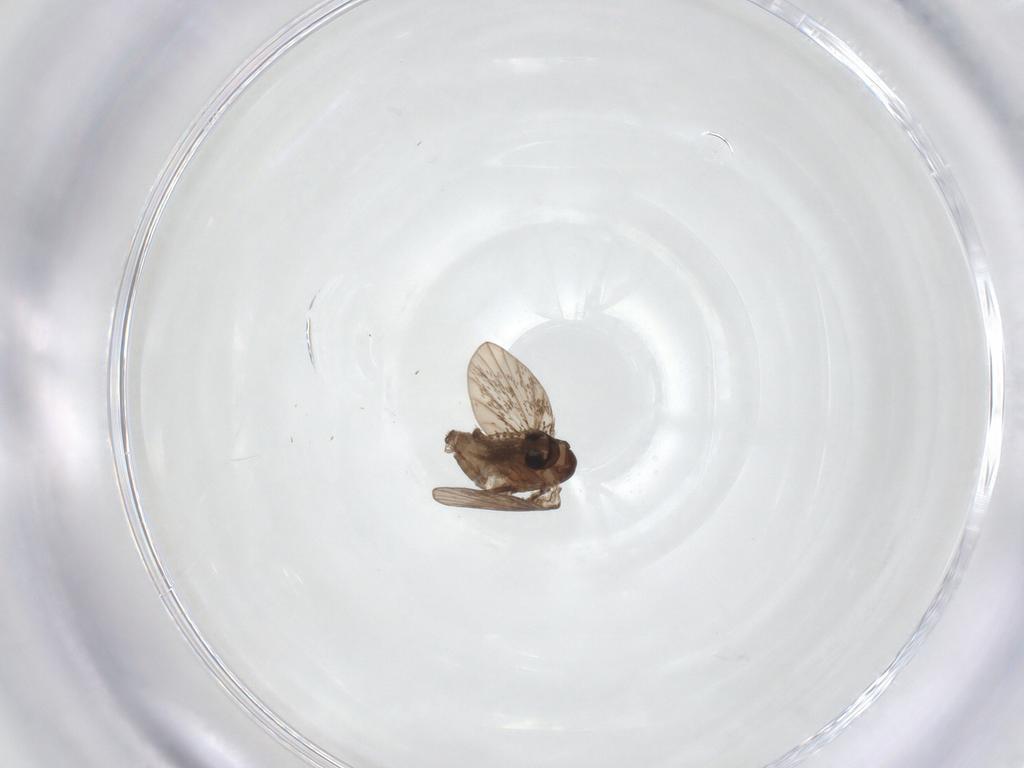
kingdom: Animalia
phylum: Arthropoda
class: Insecta
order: Diptera
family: Psychodidae
